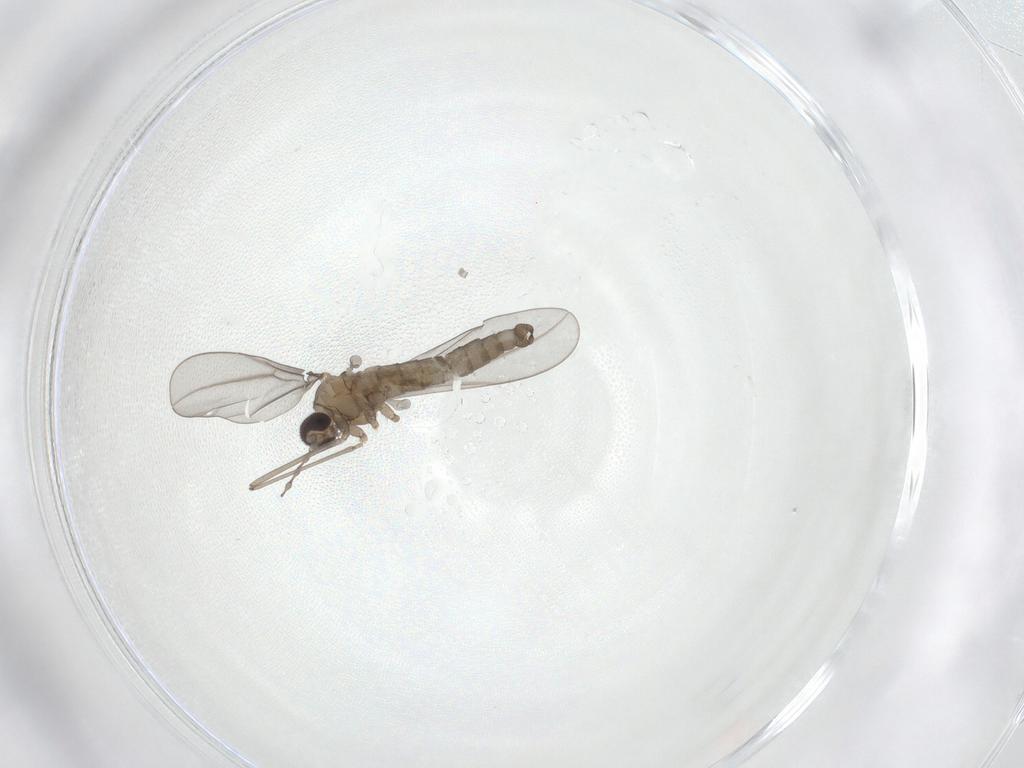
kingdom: Animalia
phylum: Arthropoda
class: Insecta
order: Diptera
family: Cecidomyiidae
